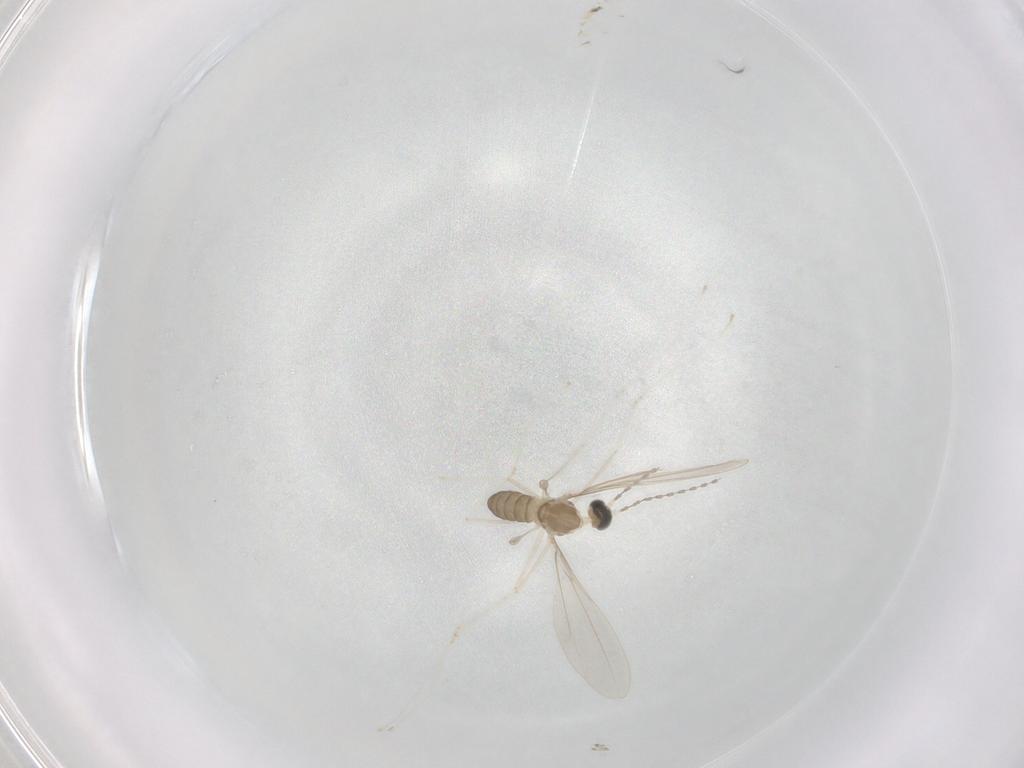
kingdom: Animalia
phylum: Arthropoda
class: Insecta
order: Diptera
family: Cecidomyiidae
